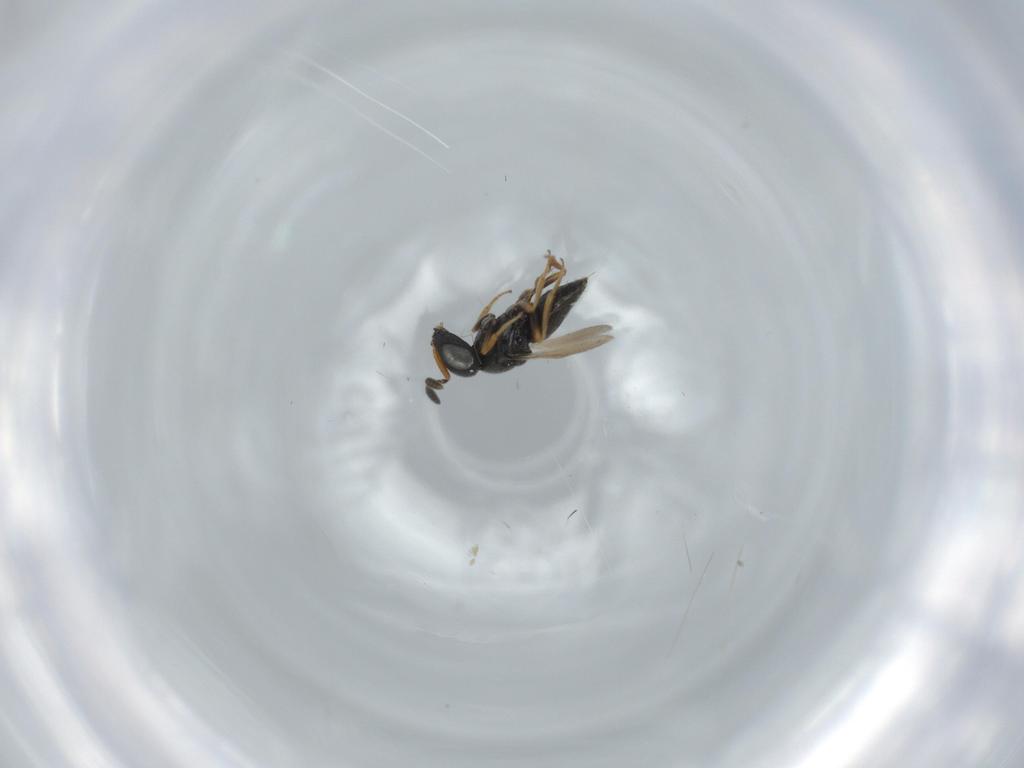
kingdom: Animalia
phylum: Arthropoda
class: Insecta
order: Hymenoptera
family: Scelionidae
